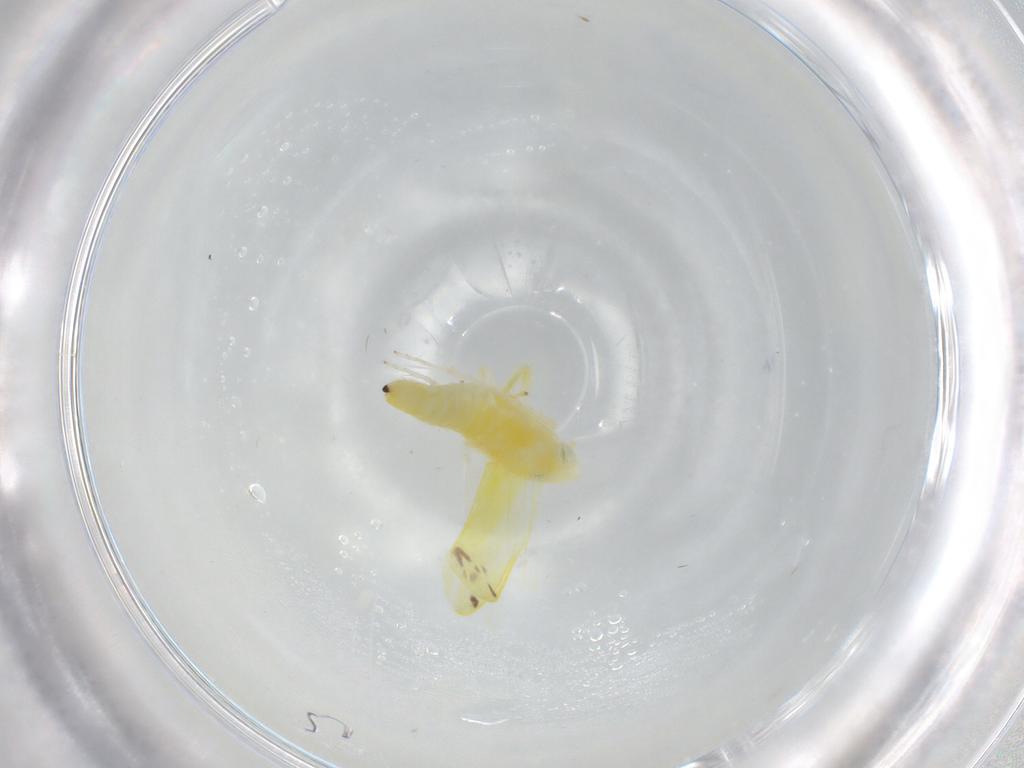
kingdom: Animalia
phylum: Arthropoda
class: Insecta
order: Hemiptera
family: Cicadellidae
